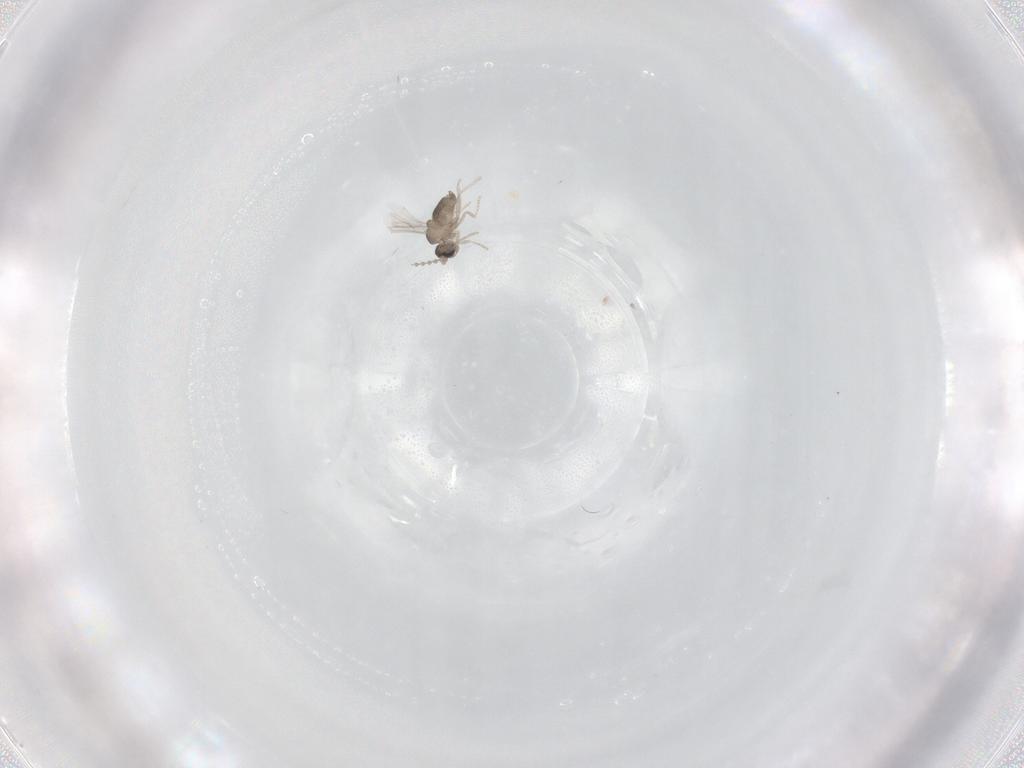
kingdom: Animalia
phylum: Arthropoda
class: Insecta
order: Diptera
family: Cecidomyiidae
